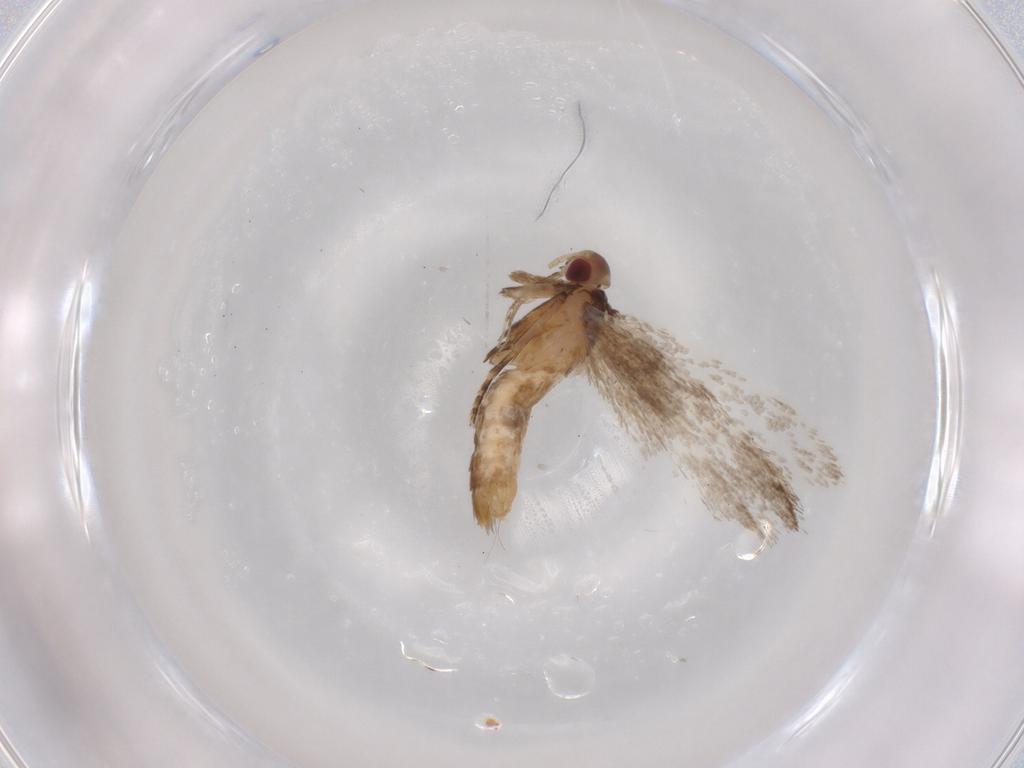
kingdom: Animalia
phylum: Arthropoda
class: Insecta
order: Lepidoptera
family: Gelechiidae
